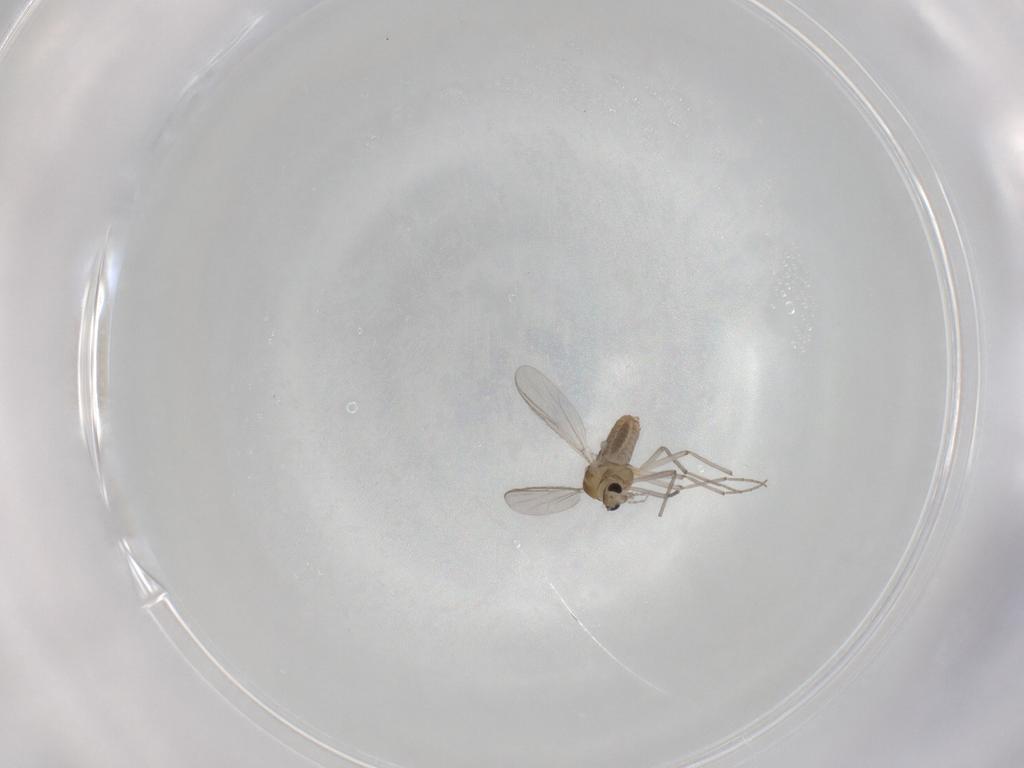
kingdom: Animalia
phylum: Arthropoda
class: Insecta
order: Diptera
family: Chironomidae
